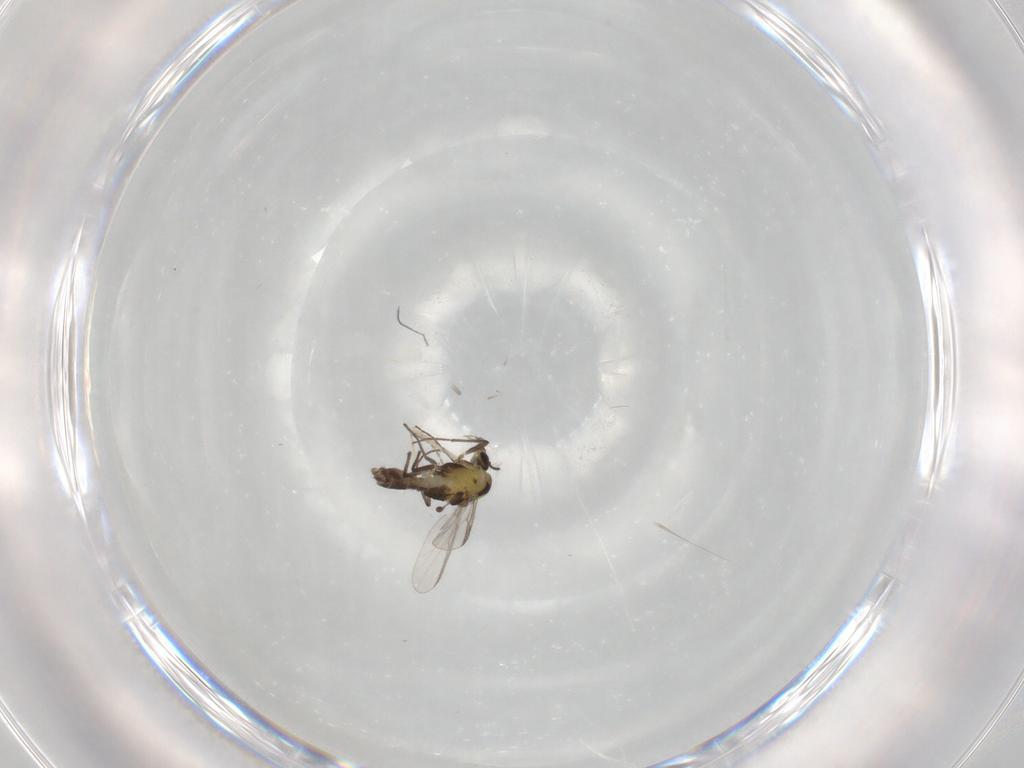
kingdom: Animalia
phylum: Arthropoda
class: Insecta
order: Diptera
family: Chironomidae
